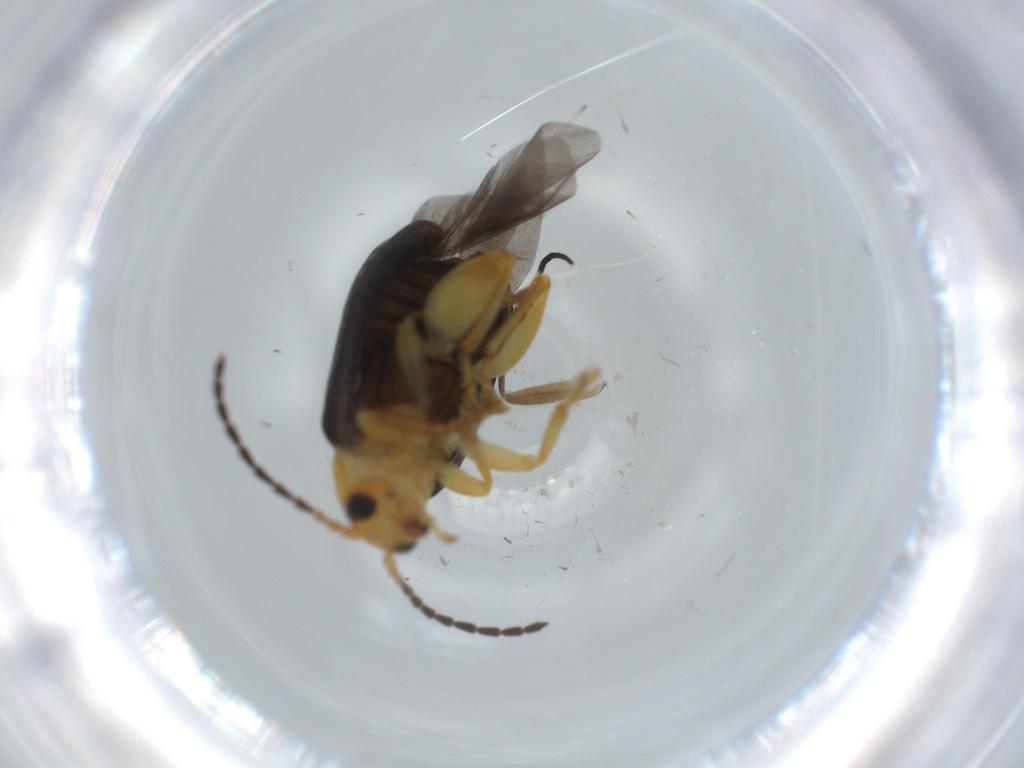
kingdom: Animalia
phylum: Arthropoda
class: Insecta
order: Coleoptera
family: Chrysomelidae
